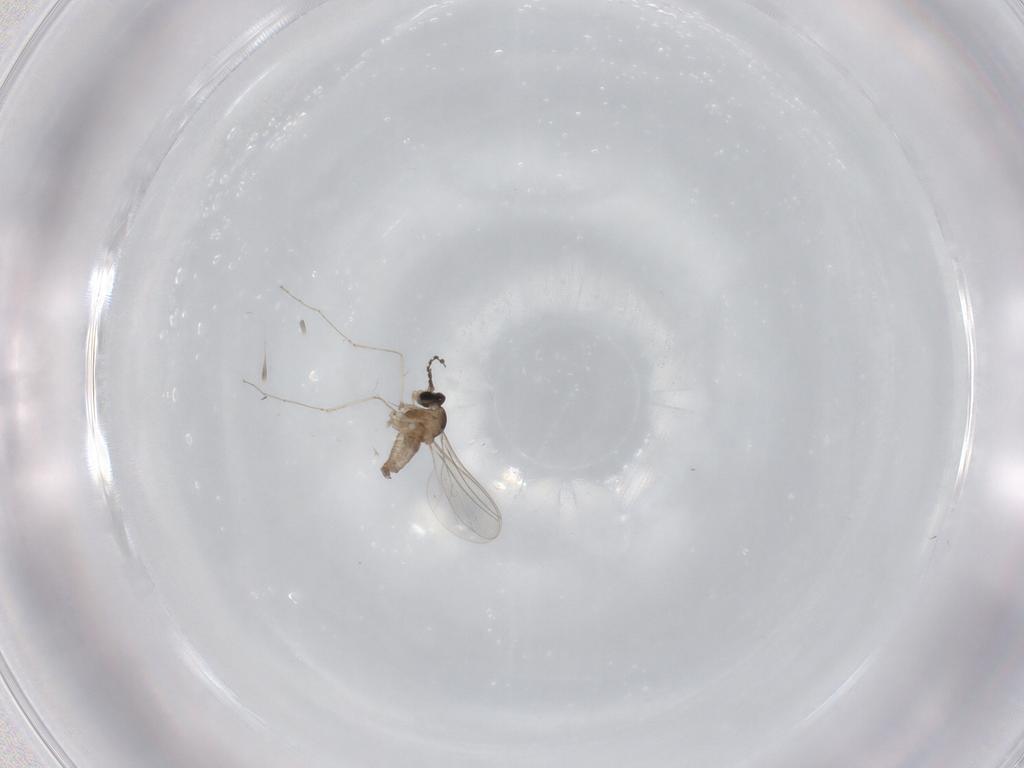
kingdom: Animalia
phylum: Arthropoda
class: Insecta
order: Diptera
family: Cecidomyiidae
